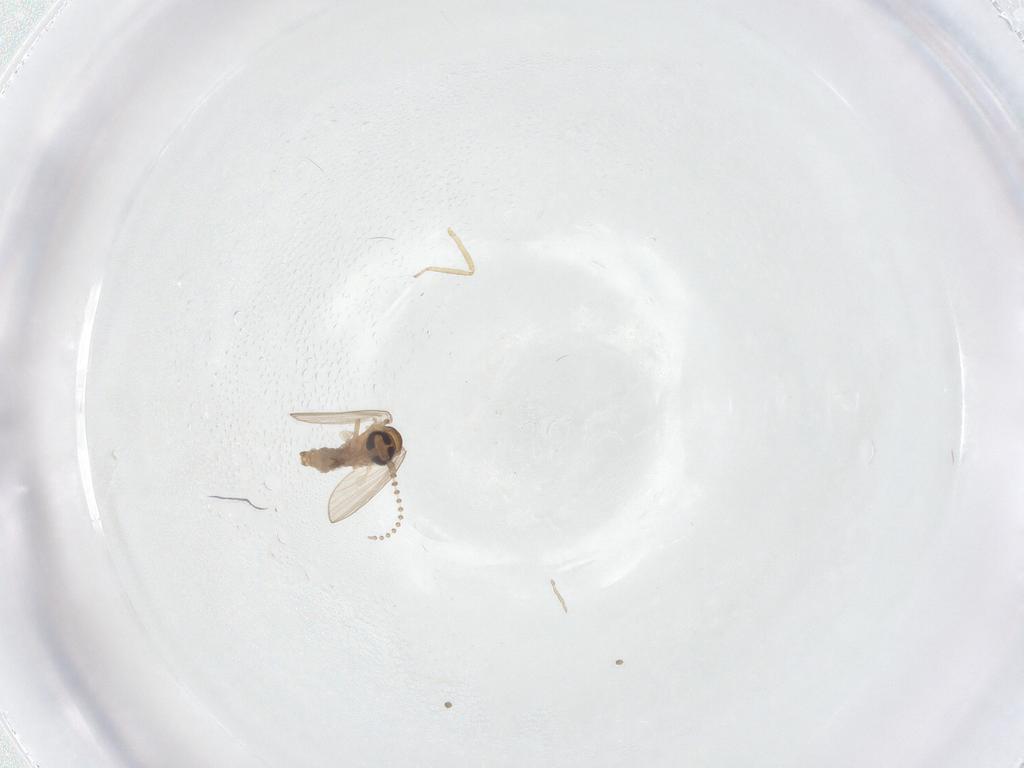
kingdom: Animalia
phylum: Arthropoda
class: Insecta
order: Diptera
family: Psychodidae
